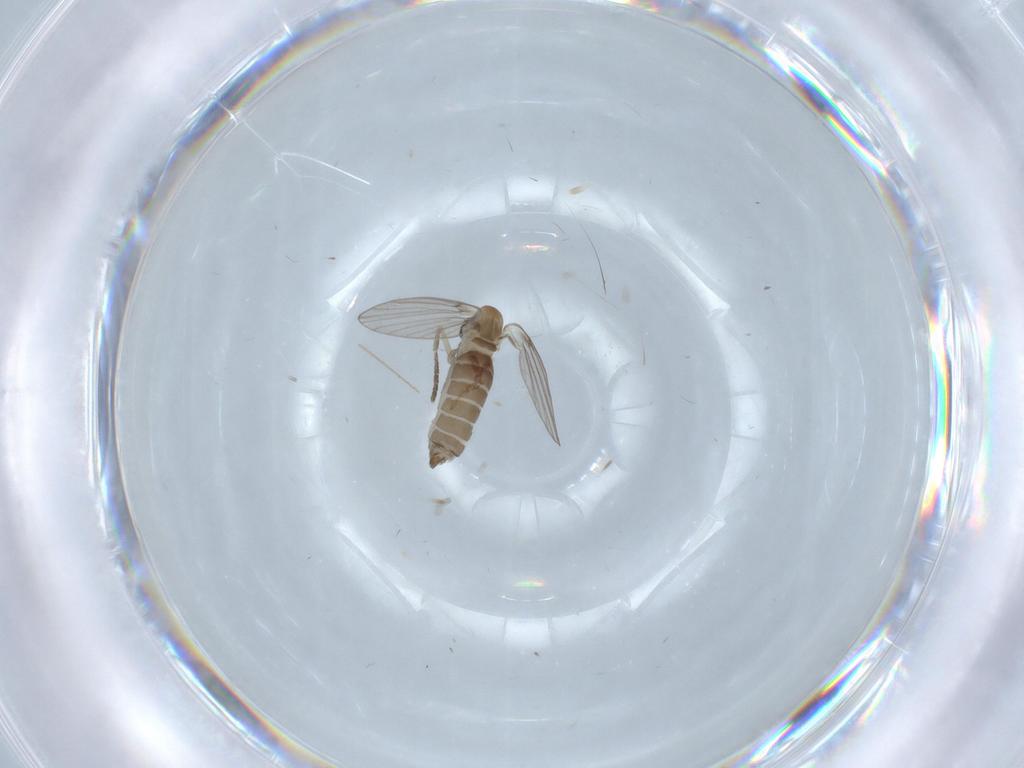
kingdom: Animalia
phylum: Arthropoda
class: Insecta
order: Diptera
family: Psychodidae
